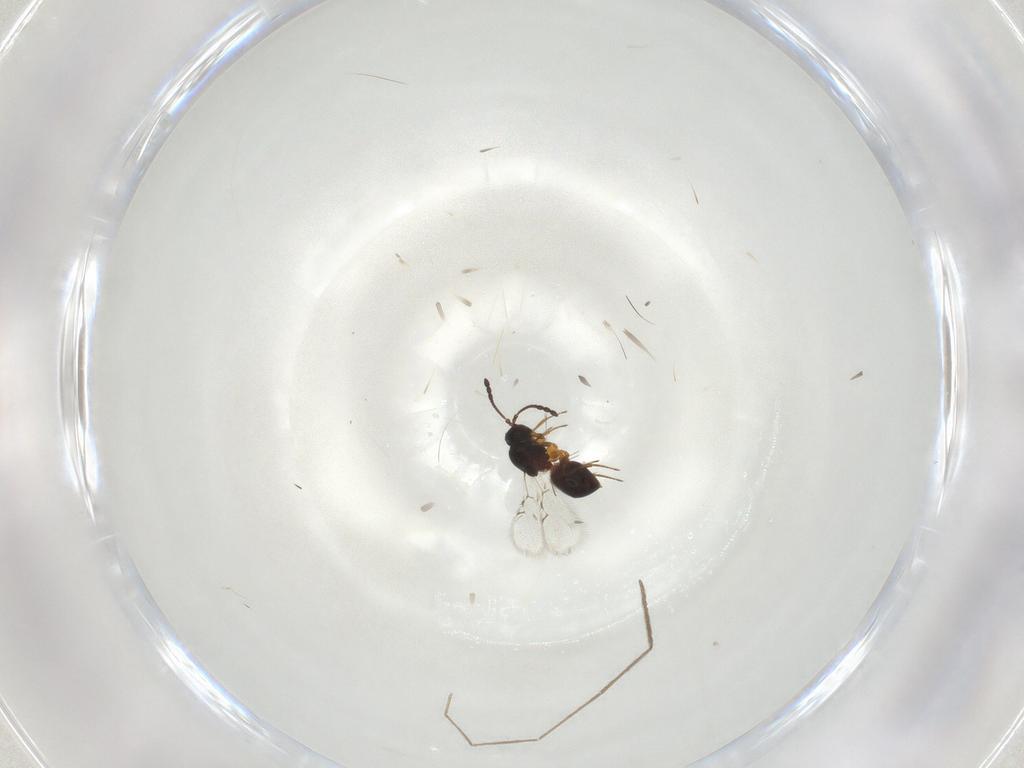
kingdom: Animalia
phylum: Arthropoda
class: Insecta
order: Hymenoptera
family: Figitidae
